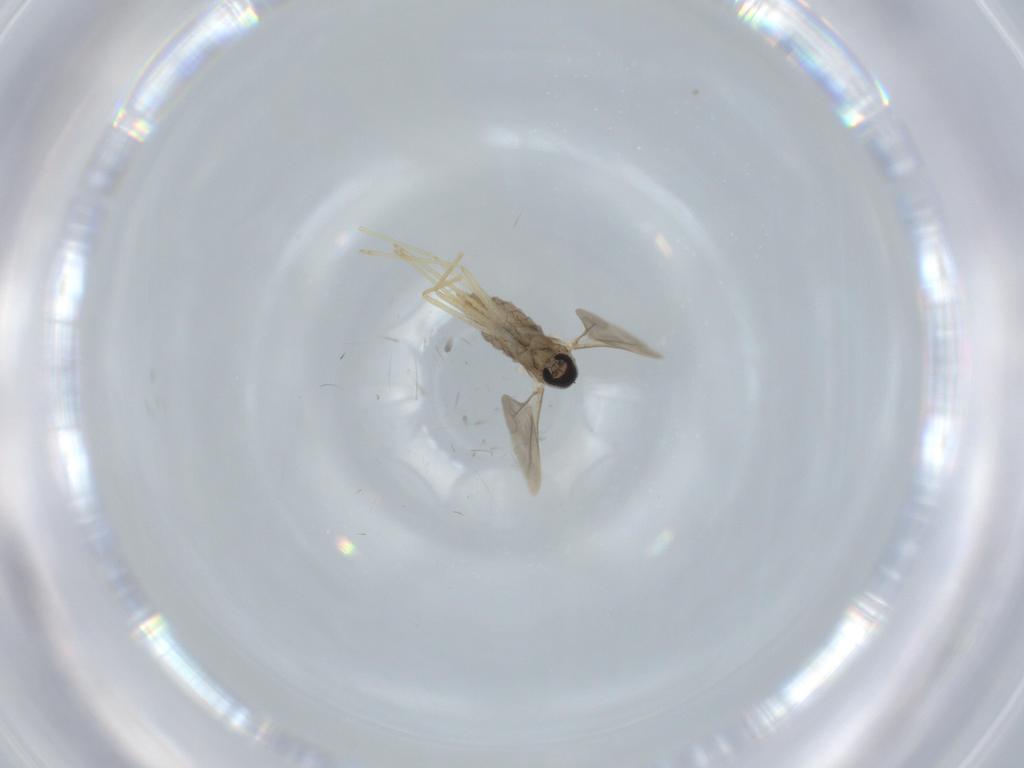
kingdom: Animalia
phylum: Arthropoda
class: Insecta
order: Diptera
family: Cecidomyiidae
